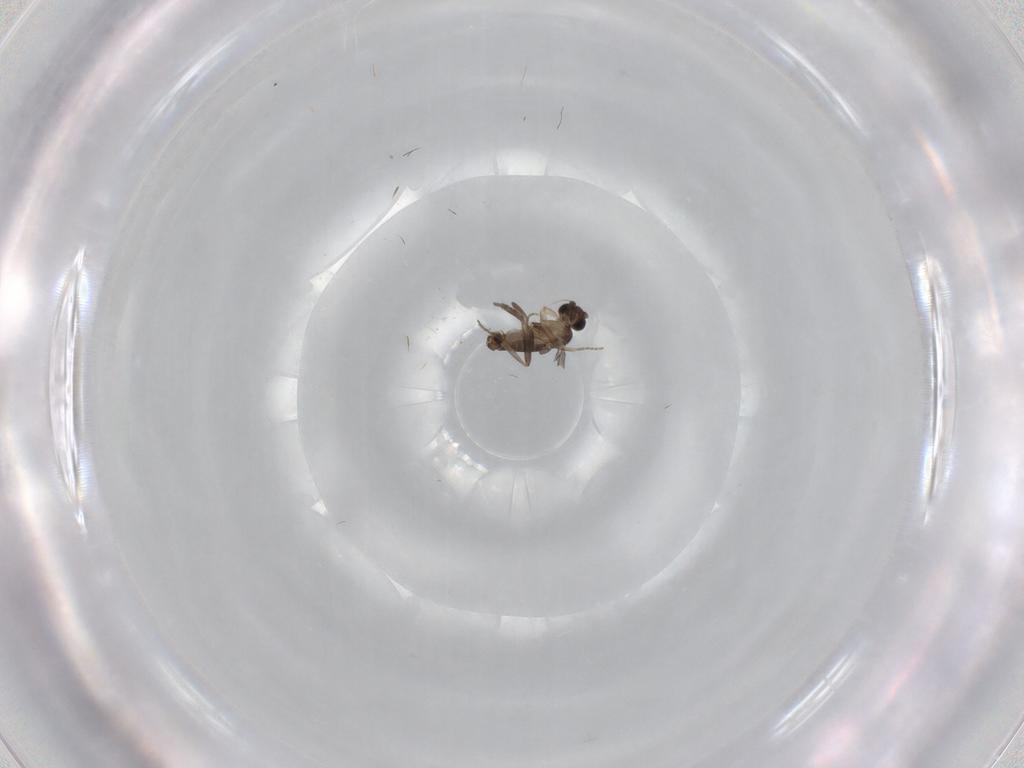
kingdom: Animalia
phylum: Arthropoda
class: Insecta
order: Diptera
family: Phoridae
